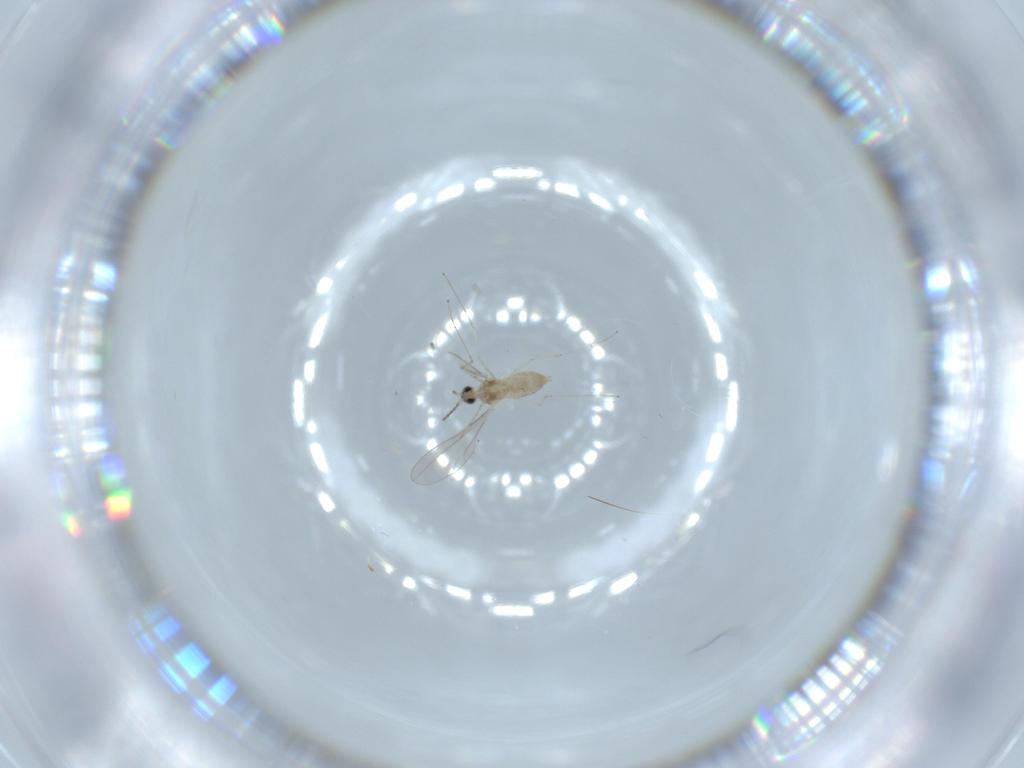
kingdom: Animalia
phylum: Arthropoda
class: Insecta
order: Diptera
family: Cecidomyiidae
